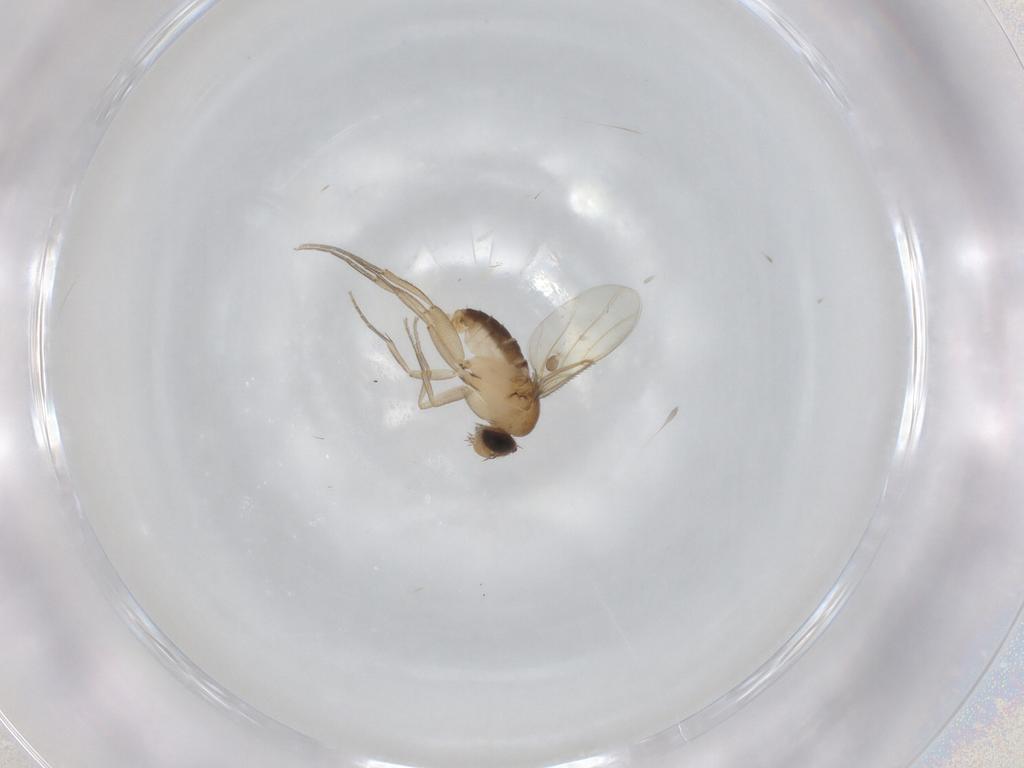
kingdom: Animalia
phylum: Arthropoda
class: Insecta
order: Diptera
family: Phoridae
